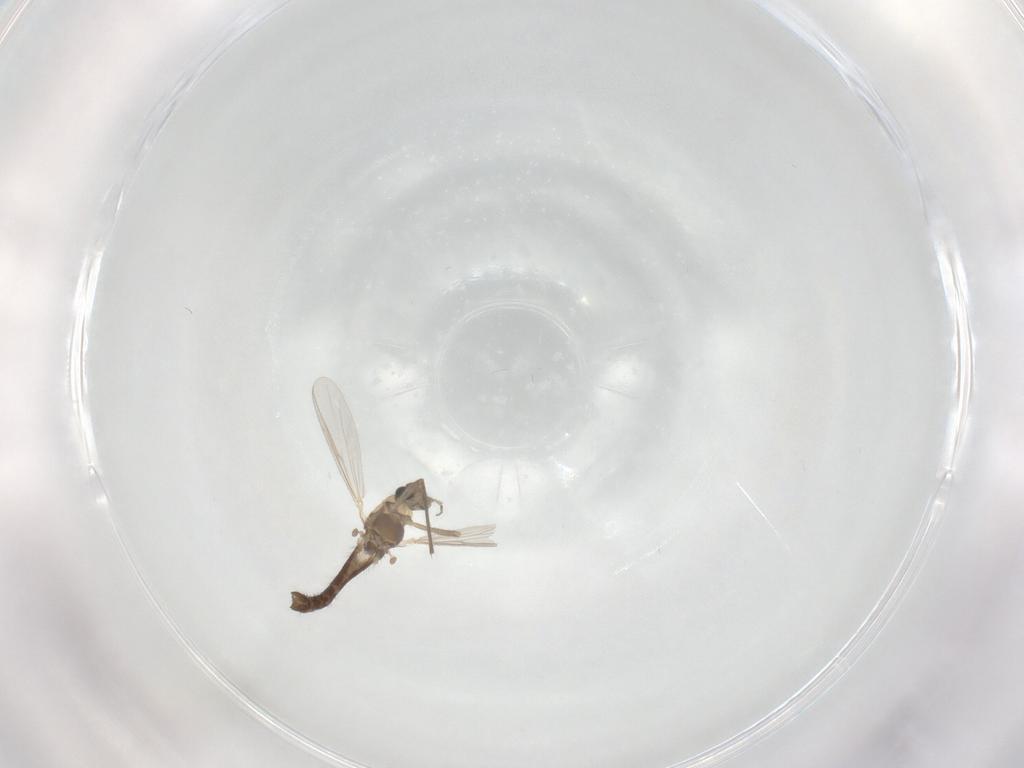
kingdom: Animalia
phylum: Arthropoda
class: Insecta
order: Diptera
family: Chironomidae
